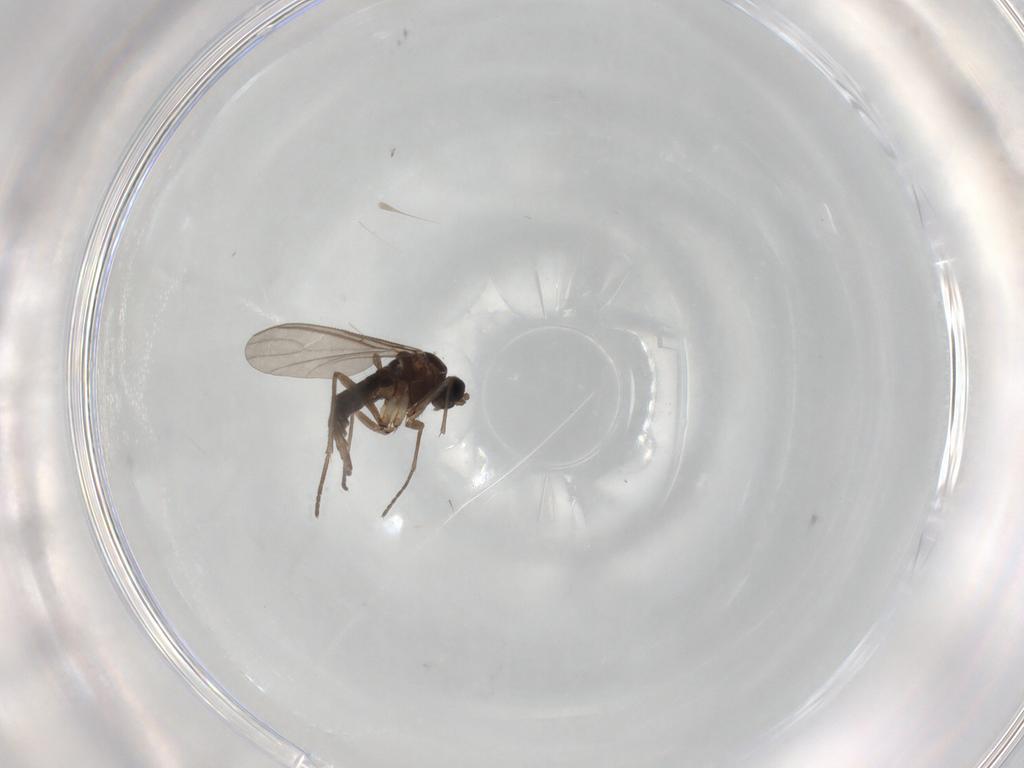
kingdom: Animalia
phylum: Arthropoda
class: Insecta
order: Diptera
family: Sciaridae
